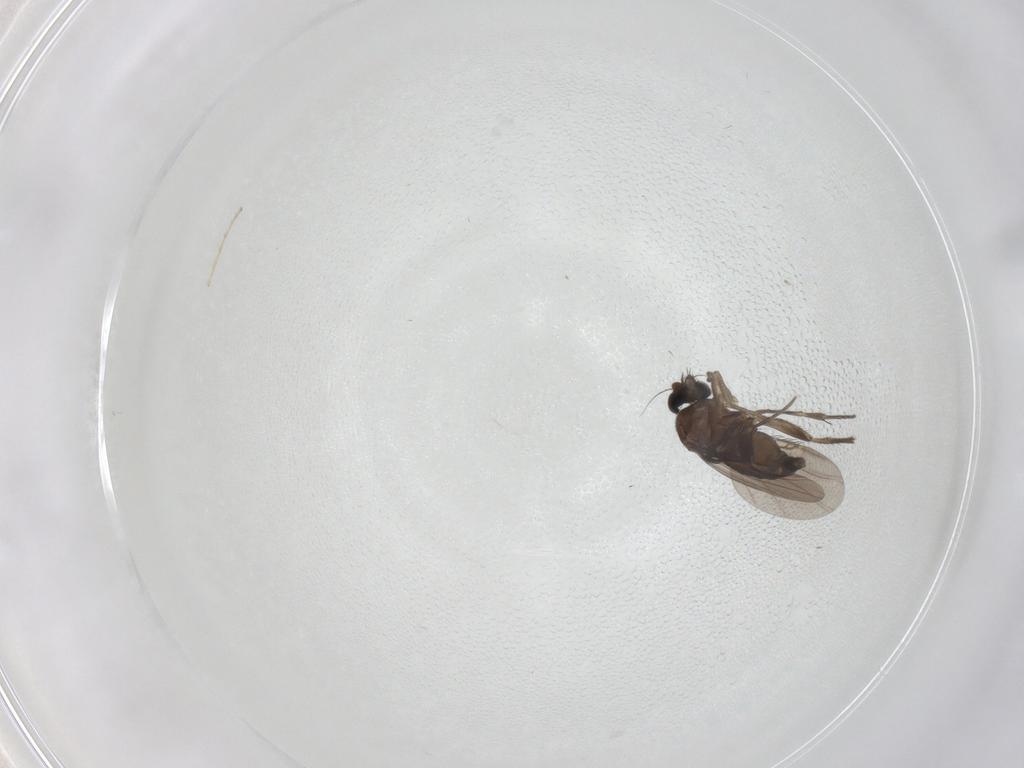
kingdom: Animalia
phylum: Arthropoda
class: Insecta
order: Diptera
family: Phoridae
